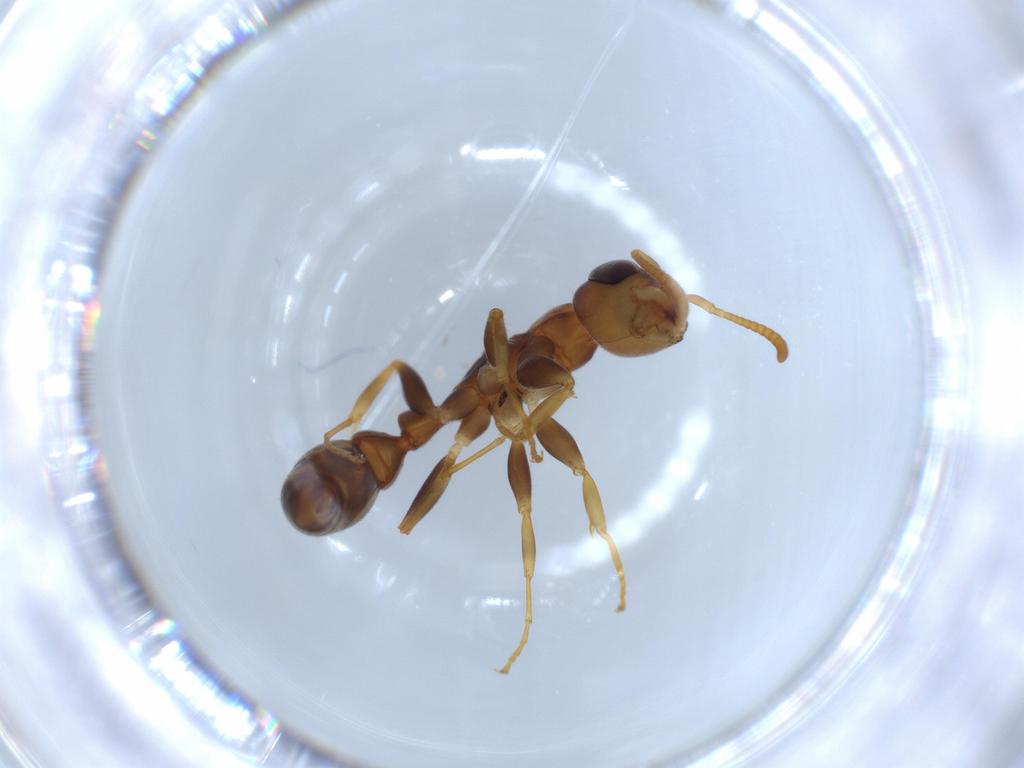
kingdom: Animalia
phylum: Arthropoda
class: Insecta
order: Hymenoptera
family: Formicidae
